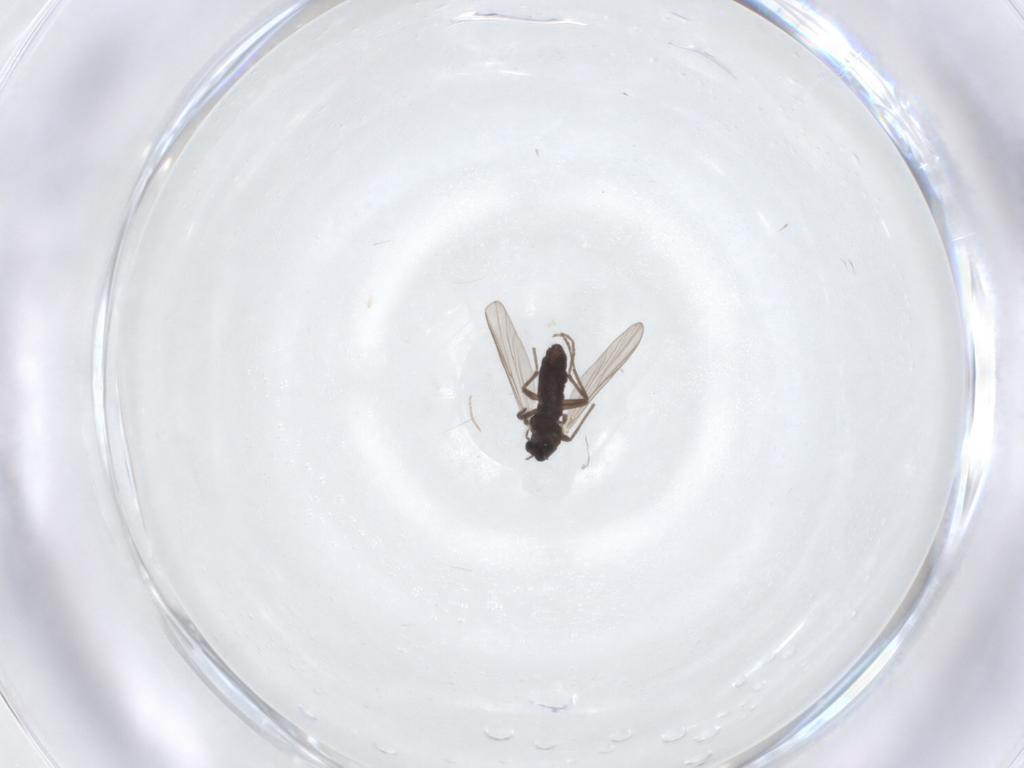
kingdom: Animalia
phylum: Arthropoda
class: Insecta
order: Diptera
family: Chironomidae
